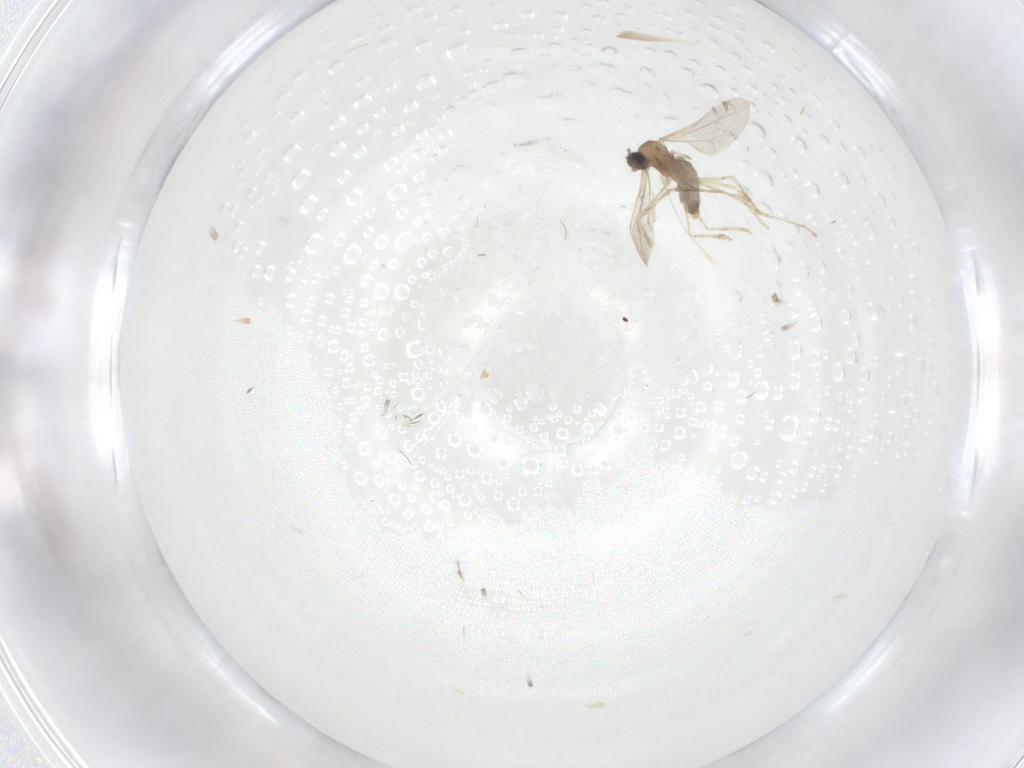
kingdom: Animalia
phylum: Arthropoda
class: Insecta
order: Diptera
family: Cecidomyiidae
